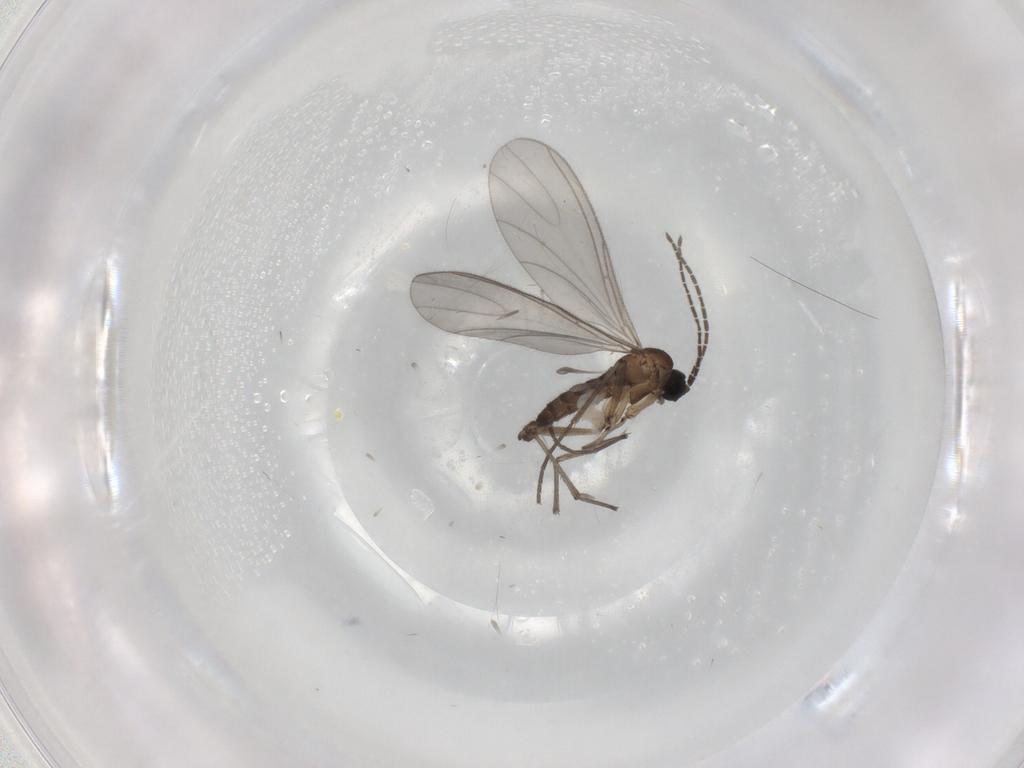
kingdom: Animalia
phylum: Arthropoda
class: Insecta
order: Diptera
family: Sciaridae
